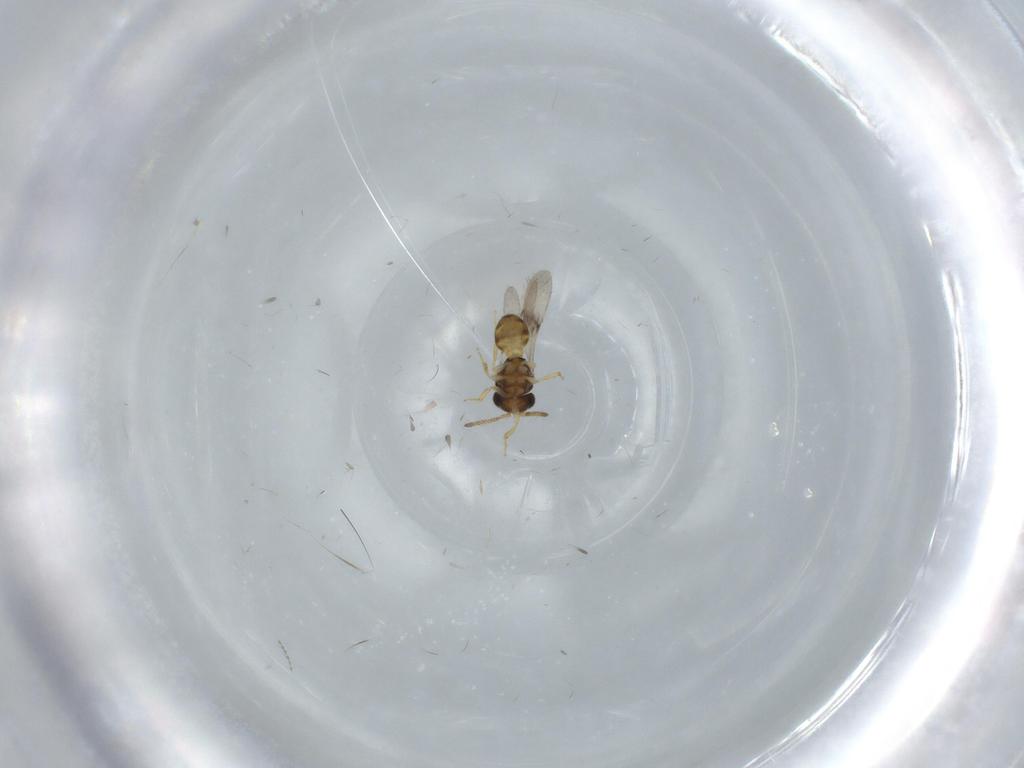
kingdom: Animalia
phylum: Arthropoda
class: Insecta
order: Hymenoptera
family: Scelionidae
